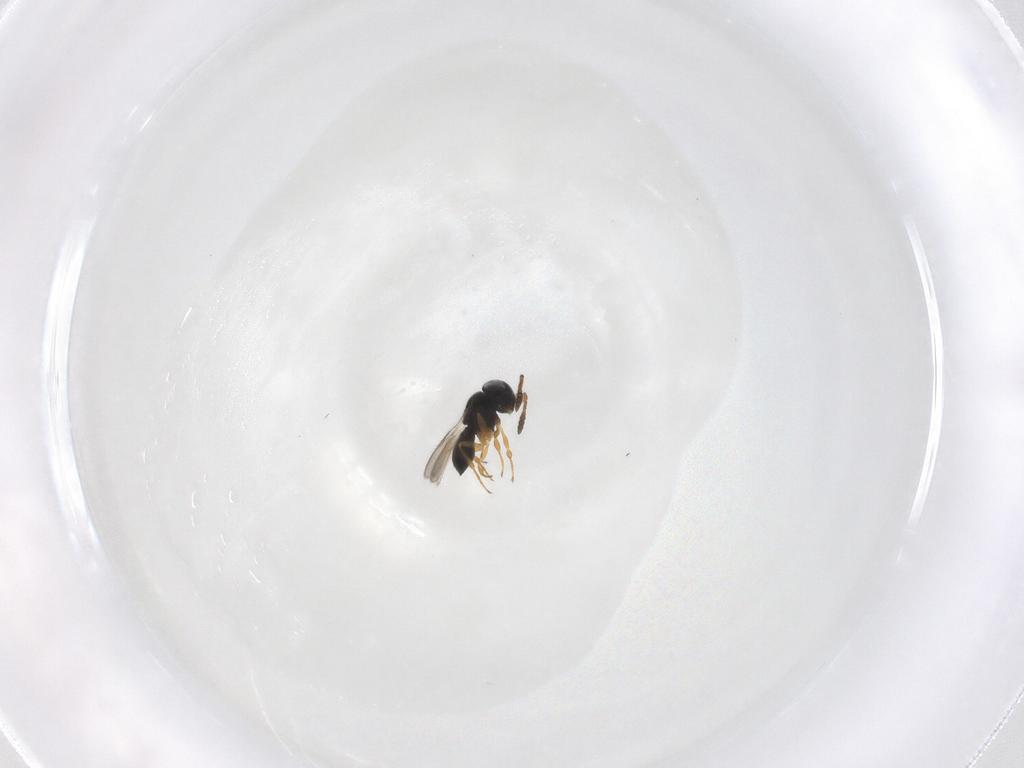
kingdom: Animalia
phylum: Arthropoda
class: Insecta
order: Hymenoptera
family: Scelionidae
